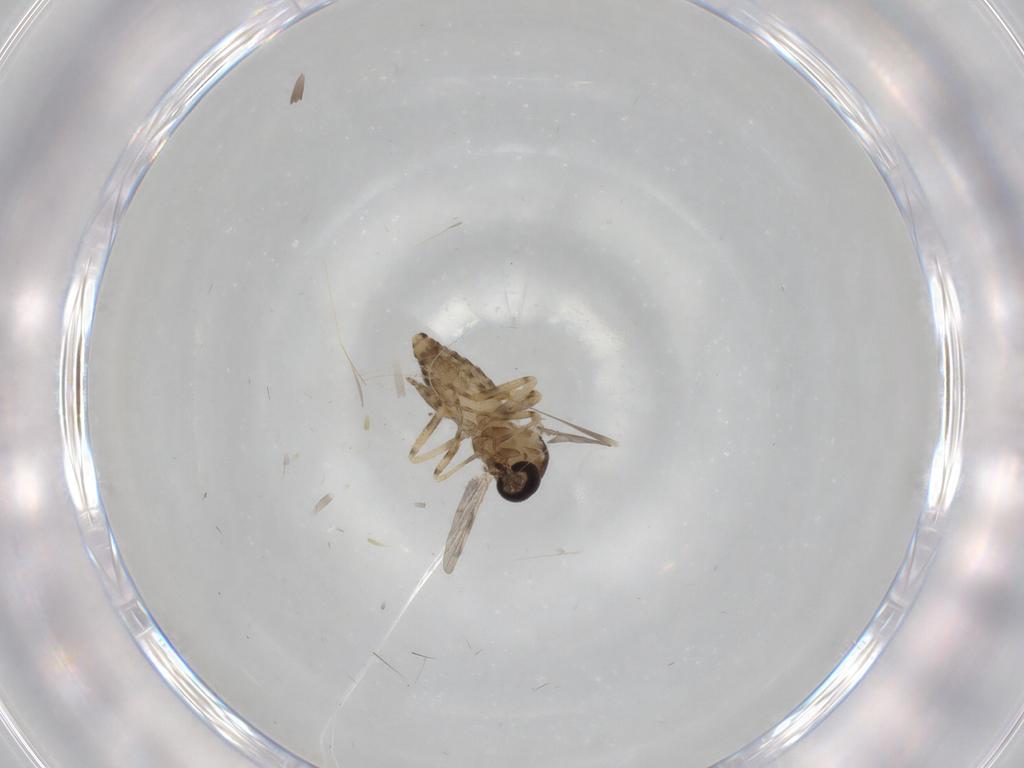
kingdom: Animalia
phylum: Arthropoda
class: Insecta
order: Diptera
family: Ceratopogonidae
